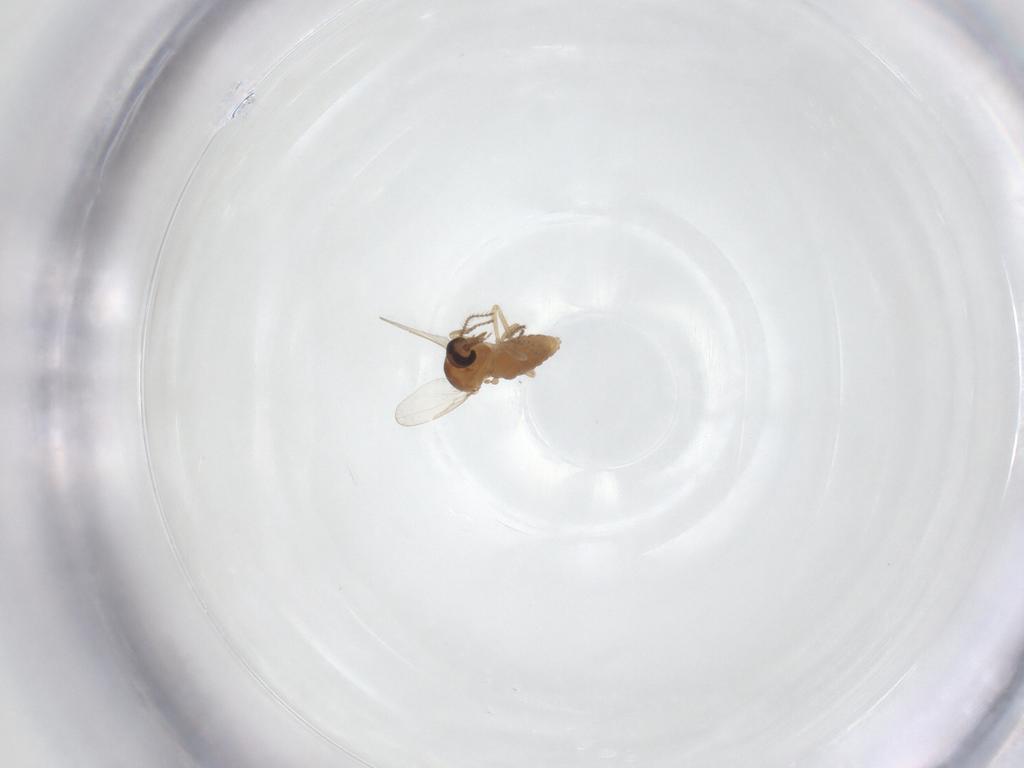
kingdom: Animalia
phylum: Arthropoda
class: Insecta
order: Diptera
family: Ceratopogonidae
